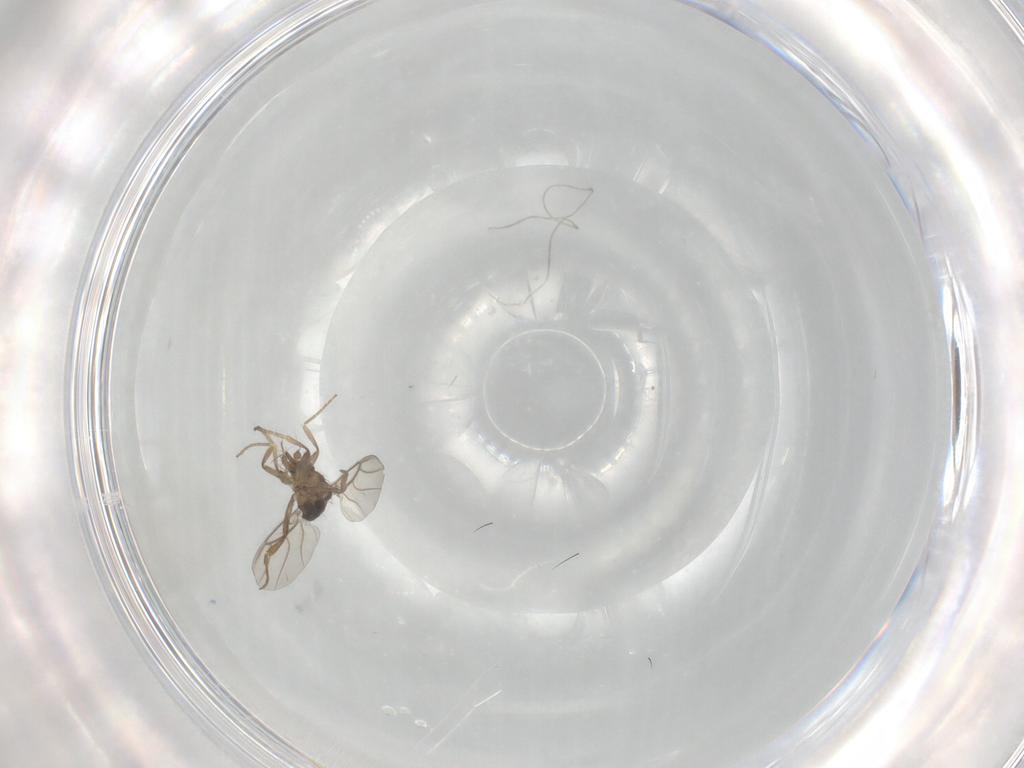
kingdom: Animalia
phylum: Arthropoda
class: Insecta
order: Diptera
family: Phoridae
